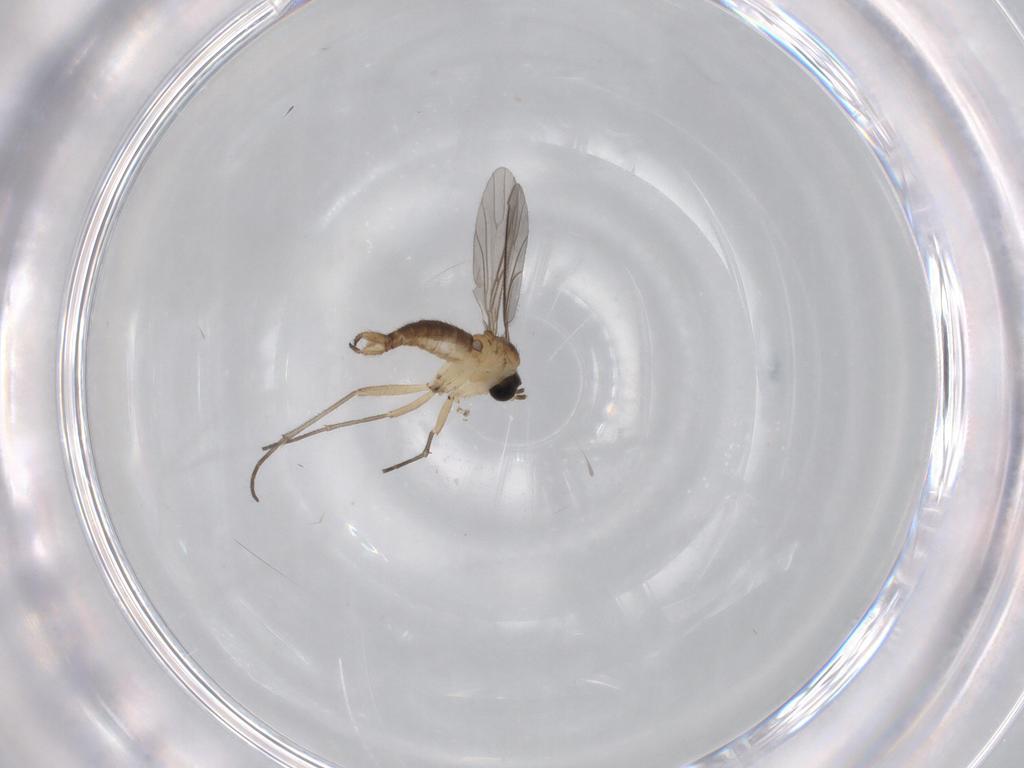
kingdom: Animalia
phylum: Arthropoda
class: Insecta
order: Diptera
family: Sciaridae
